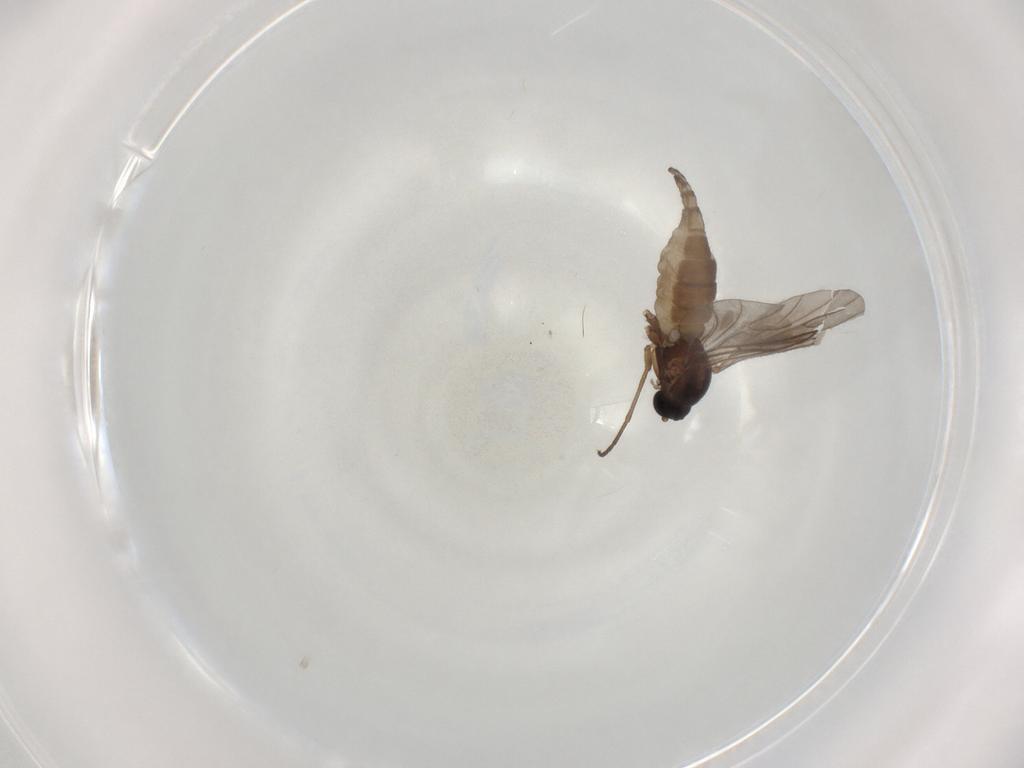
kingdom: Animalia
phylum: Arthropoda
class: Insecta
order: Diptera
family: Sciaridae
